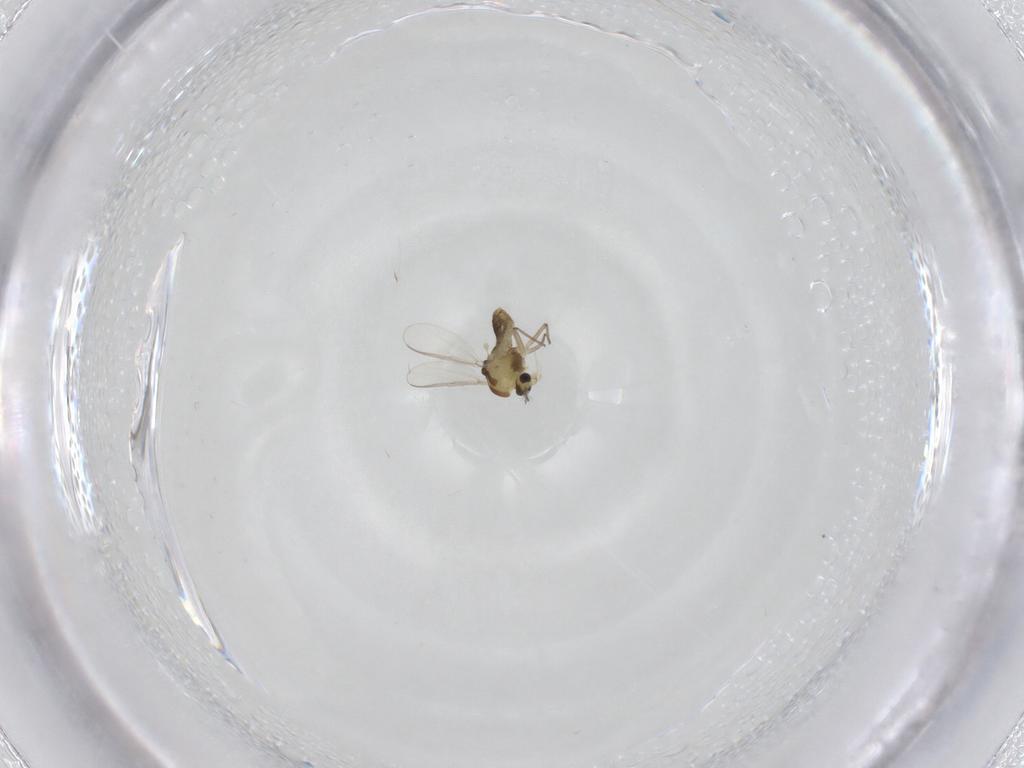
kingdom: Animalia
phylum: Arthropoda
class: Insecta
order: Diptera
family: Chironomidae
